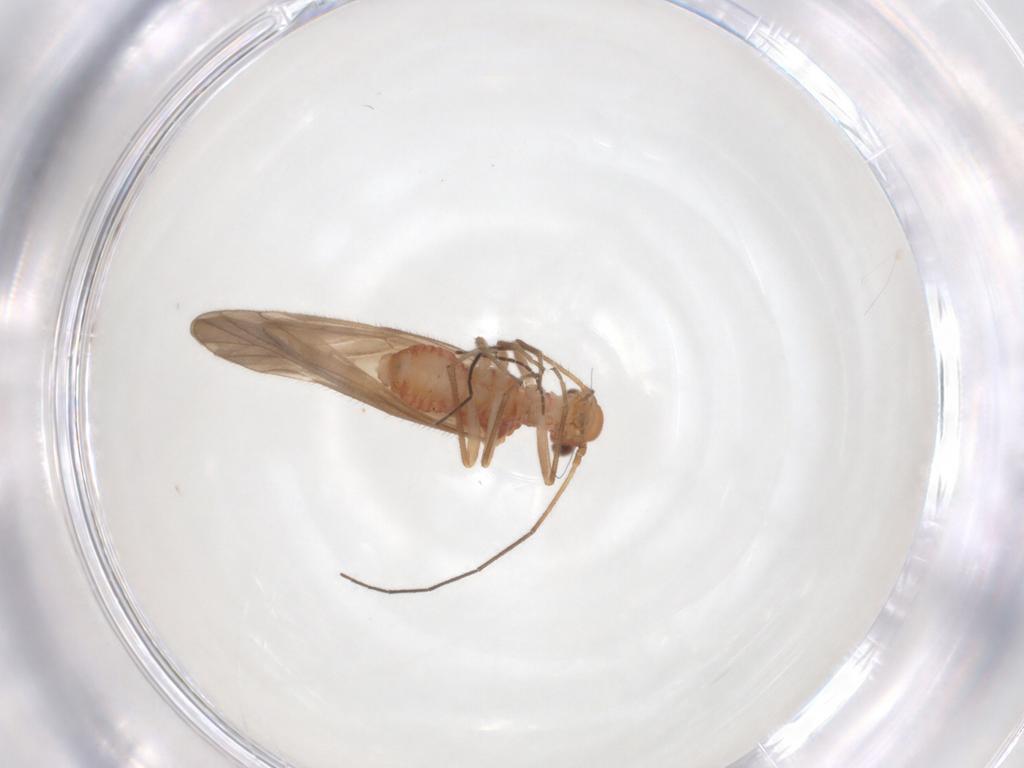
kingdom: Animalia
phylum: Arthropoda
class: Insecta
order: Psocodea
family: Caeciliusidae
